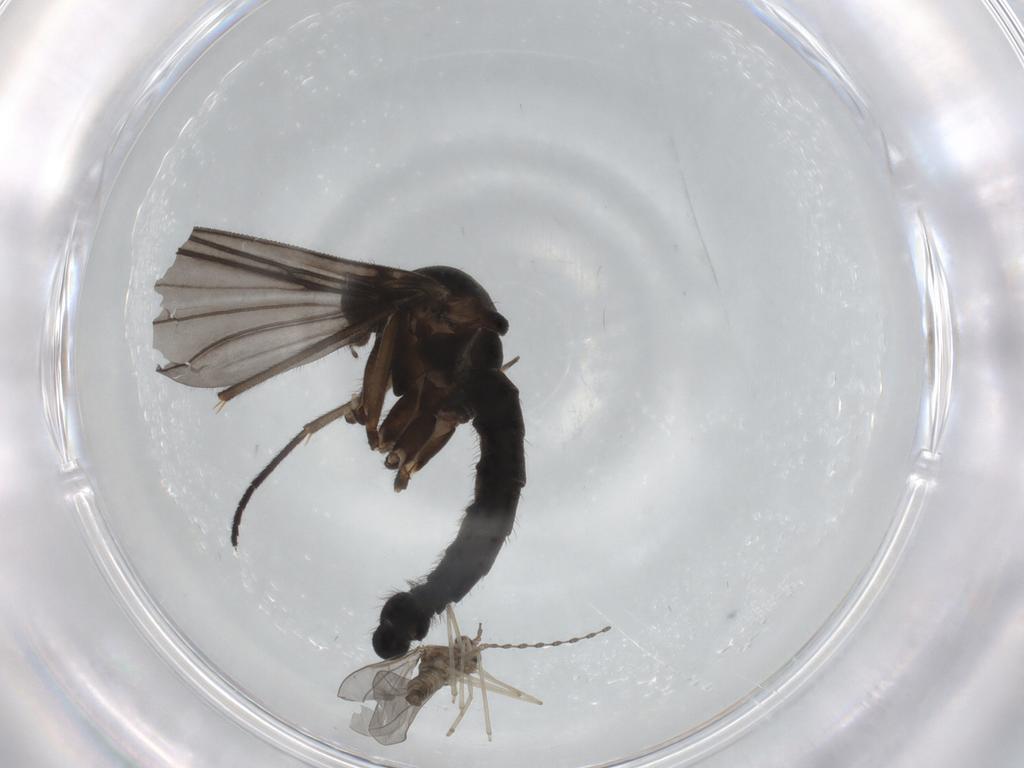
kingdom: Animalia
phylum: Arthropoda
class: Insecta
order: Diptera
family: Sciaridae
